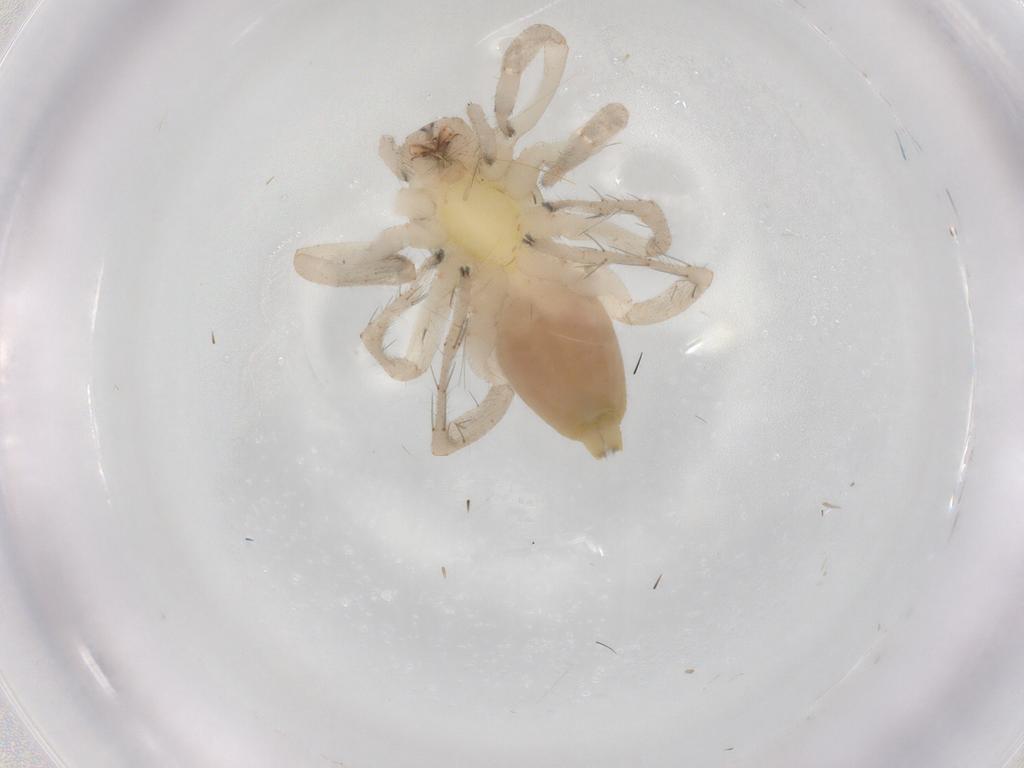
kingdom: Animalia
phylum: Arthropoda
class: Arachnida
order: Araneae
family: Clubionidae
